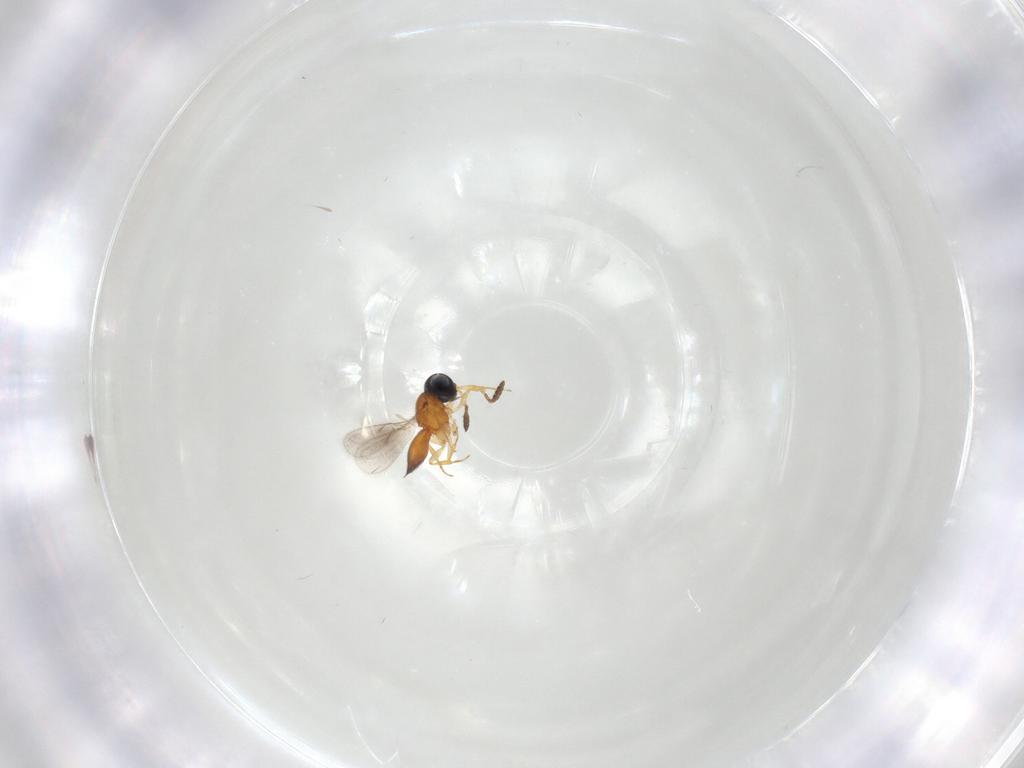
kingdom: Animalia
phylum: Arthropoda
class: Insecta
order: Hymenoptera
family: Scelionidae
